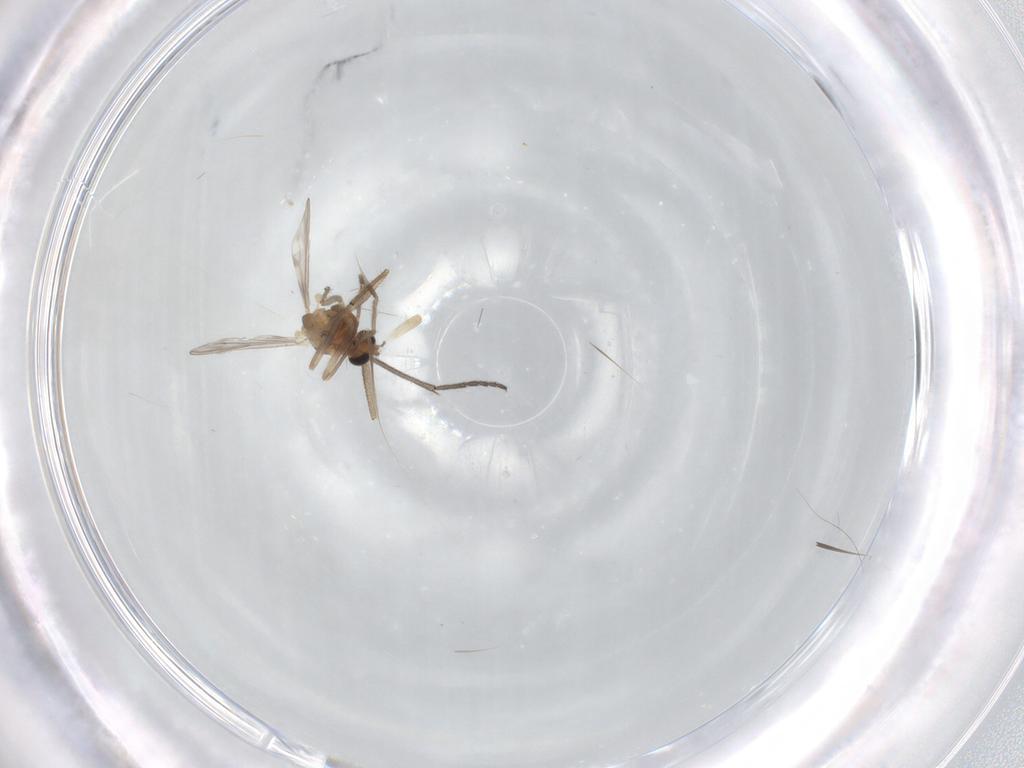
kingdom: Animalia
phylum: Arthropoda
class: Insecta
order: Diptera
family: Sciaridae
